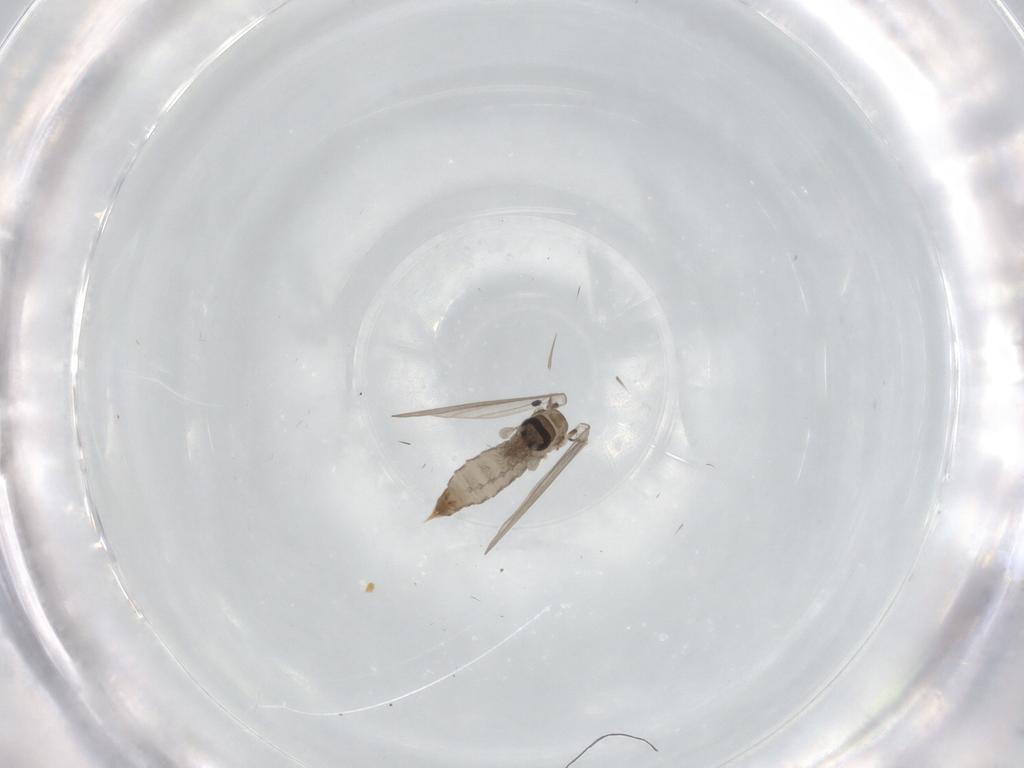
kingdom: Animalia
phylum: Arthropoda
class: Insecta
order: Diptera
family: Psychodidae
